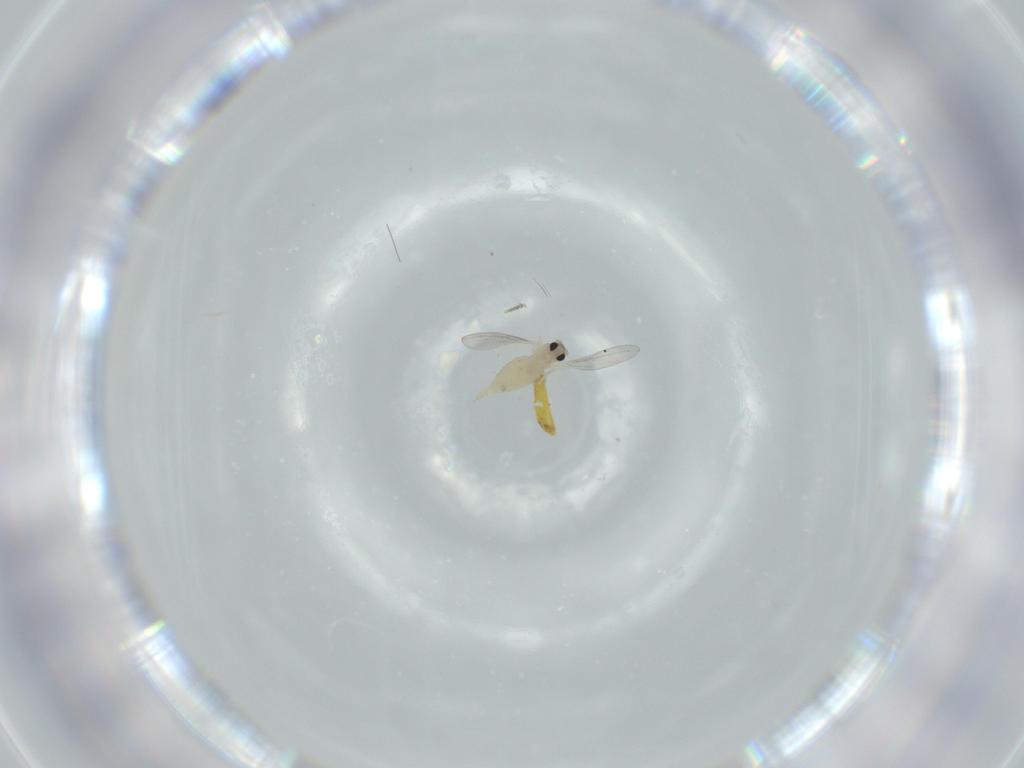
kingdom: Animalia
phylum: Arthropoda
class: Insecta
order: Diptera
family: Cecidomyiidae
